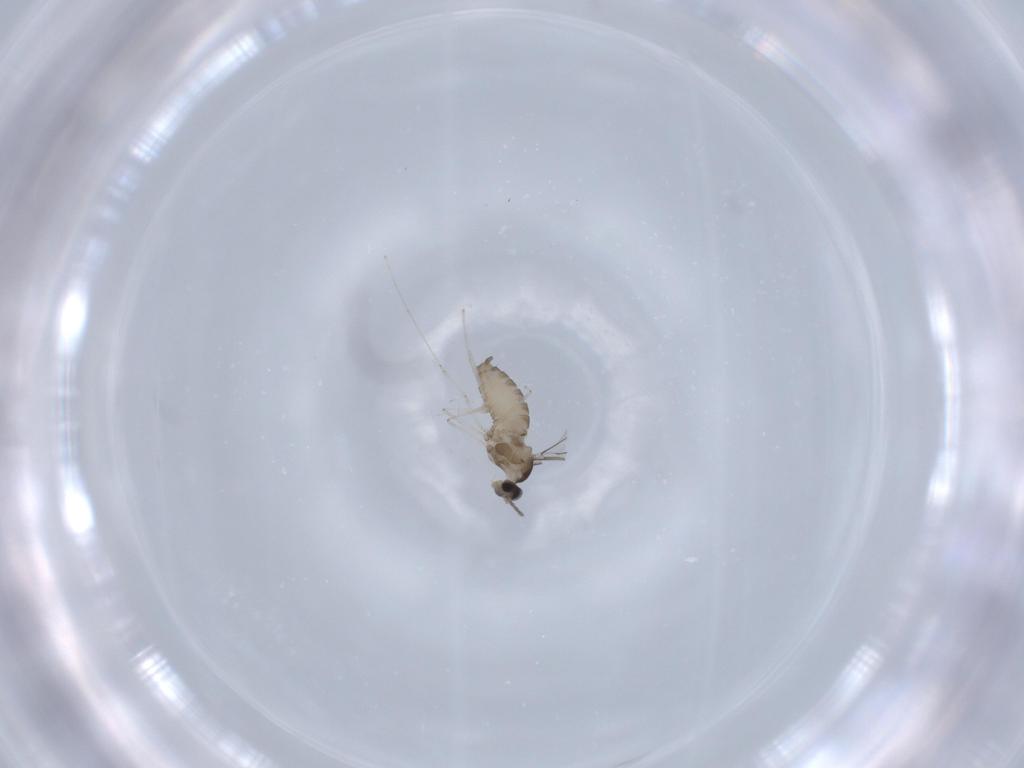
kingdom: Animalia
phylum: Arthropoda
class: Insecta
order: Diptera
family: Cecidomyiidae
